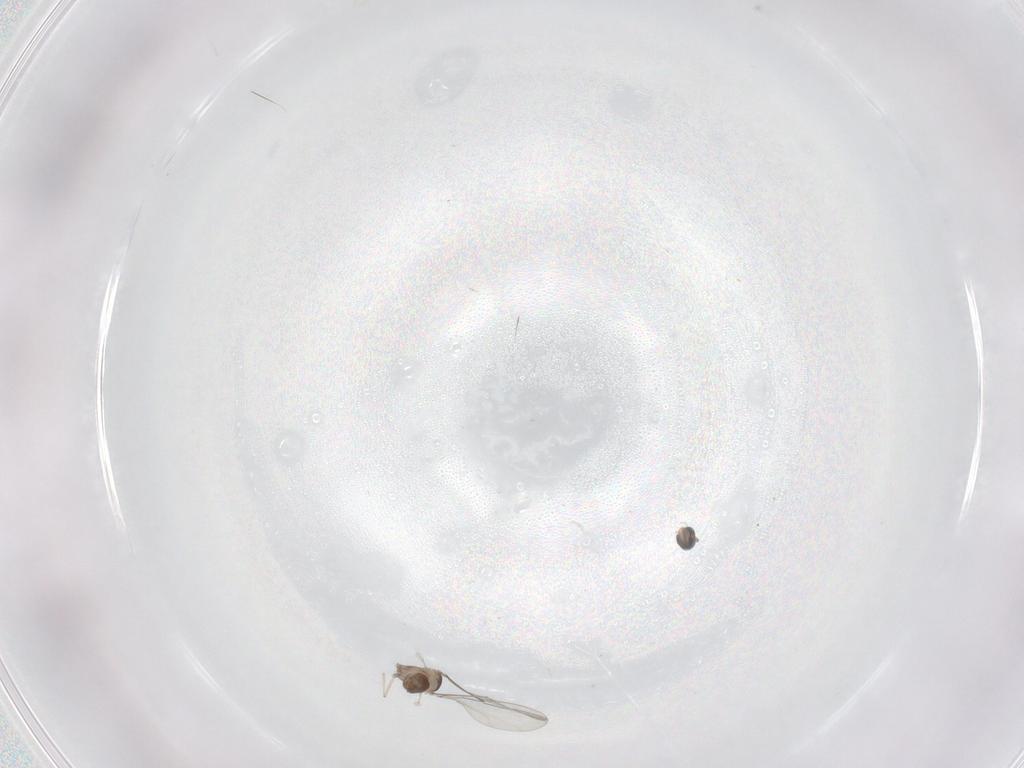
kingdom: Animalia
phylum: Arthropoda
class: Insecta
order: Diptera
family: Cecidomyiidae
